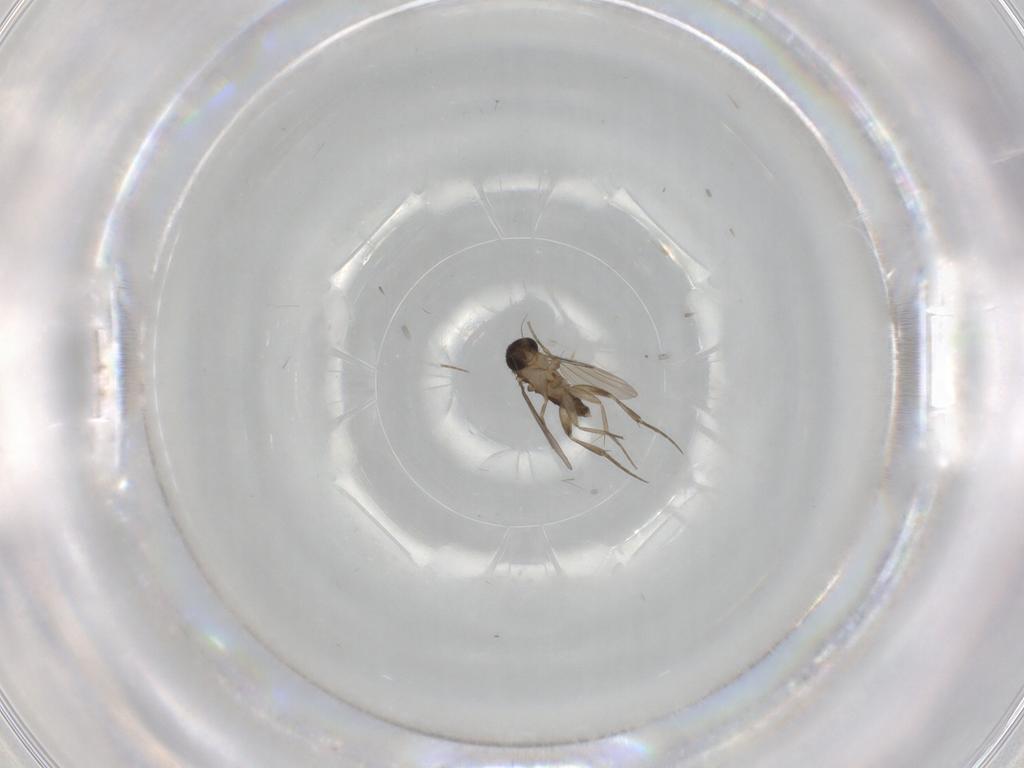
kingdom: Animalia
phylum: Arthropoda
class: Insecta
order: Diptera
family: Phoridae
